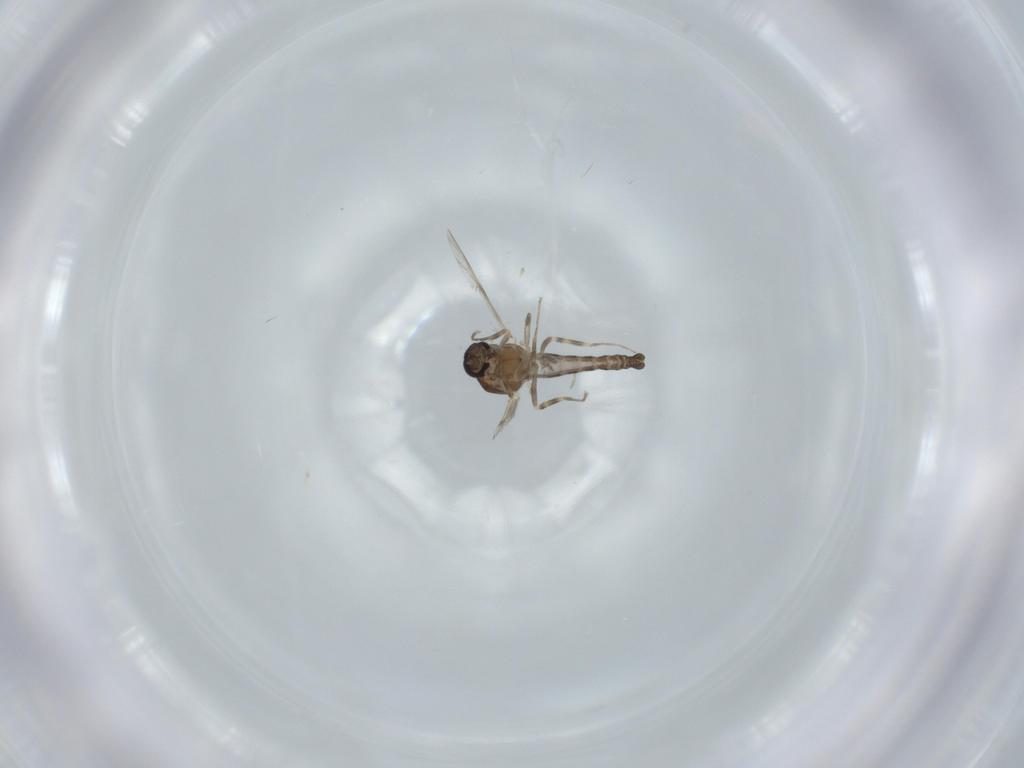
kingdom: Animalia
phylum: Arthropoda
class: Insecta
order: Diptera
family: Ceratopogonidae
